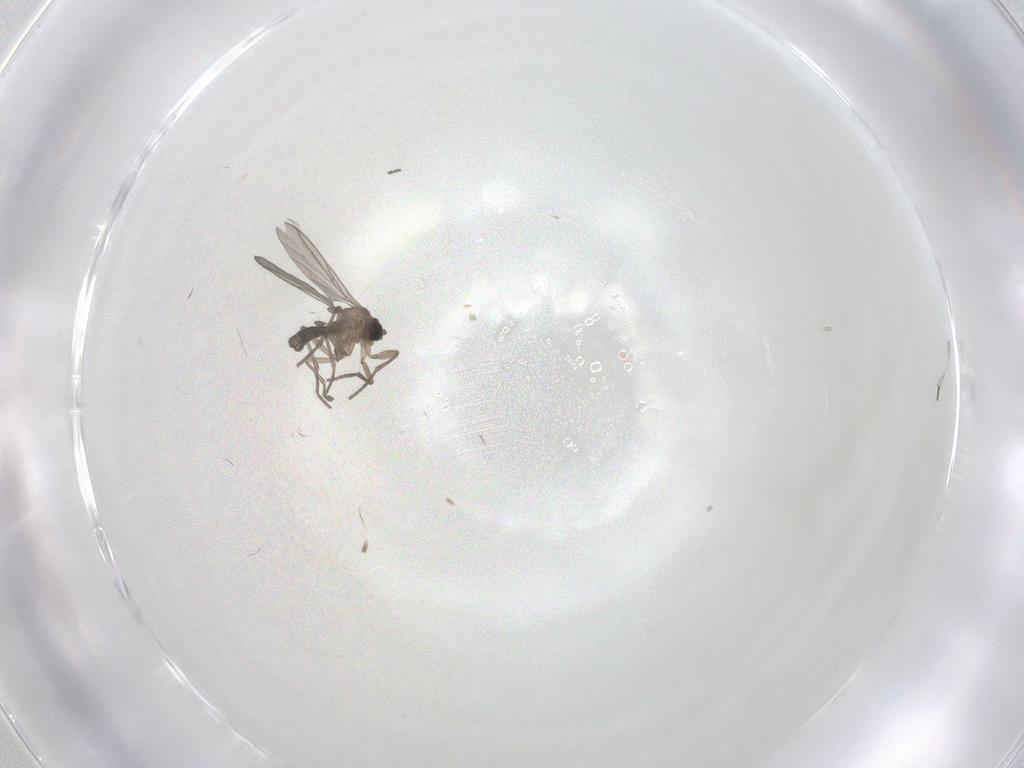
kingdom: Animalia
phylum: Arthropoda
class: Insecta
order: Diptera
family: Sciaridae
